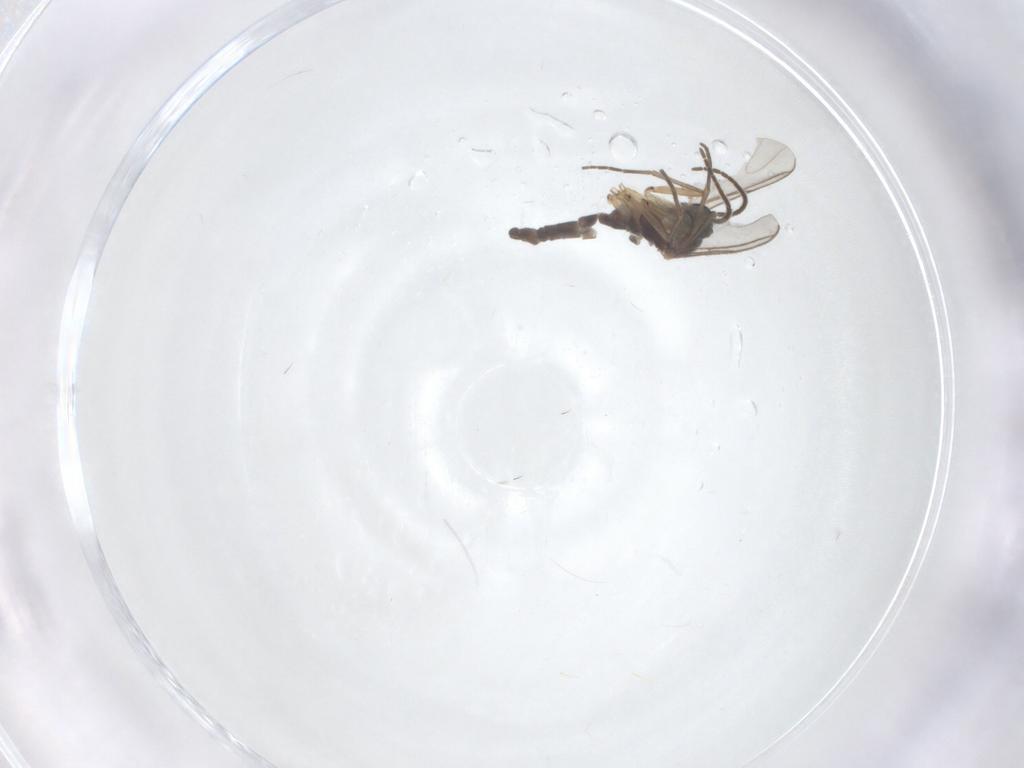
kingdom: Animalia
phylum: Arthropoda
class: Insecta
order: Diptera
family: Sciaridae
